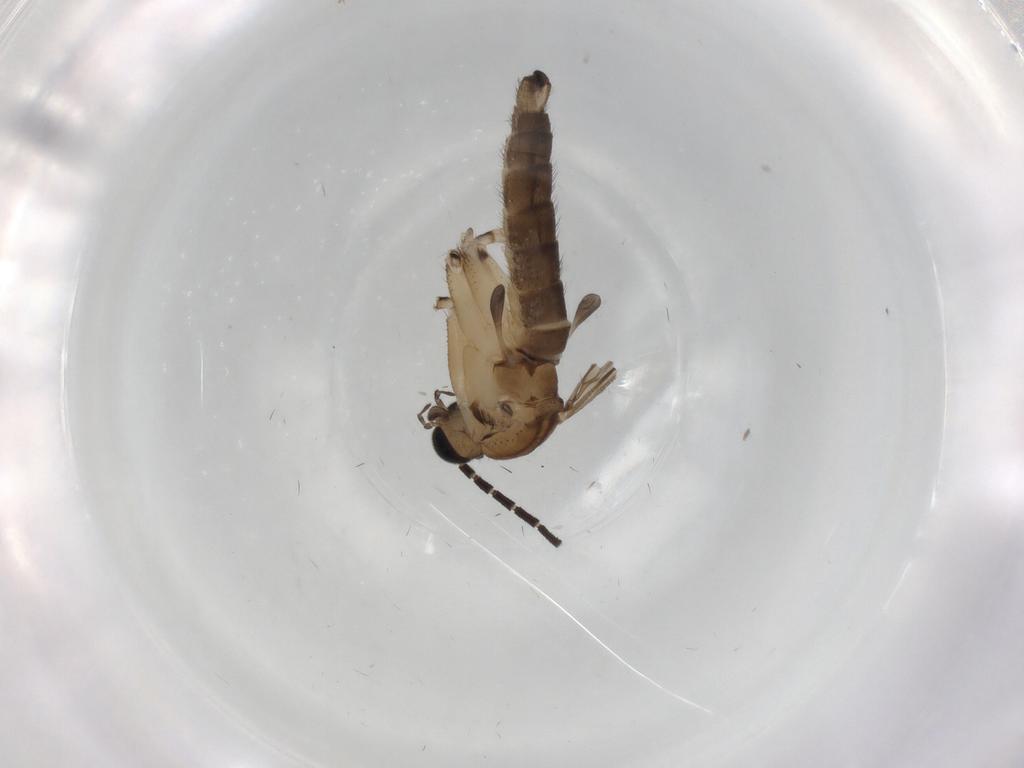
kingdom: Animalia
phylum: Arthropoda
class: Insecta
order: Diptera
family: Sciaridae
